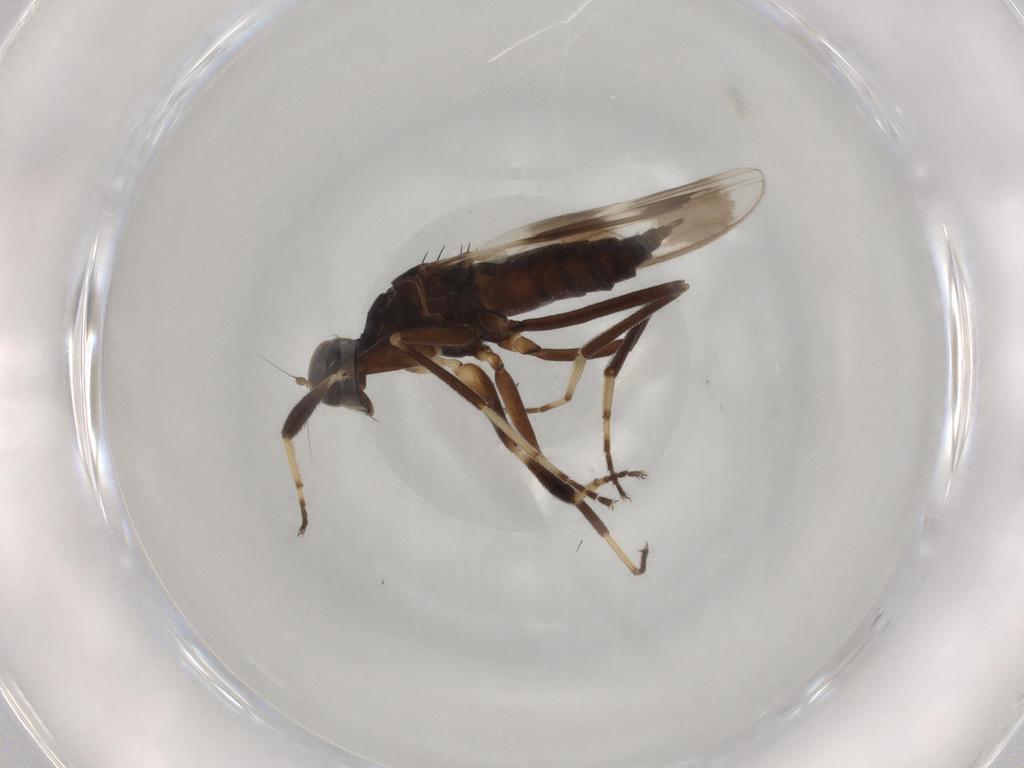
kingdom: Animalia
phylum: Arthropoda
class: Insecta
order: Diptera
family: Hybotidae
